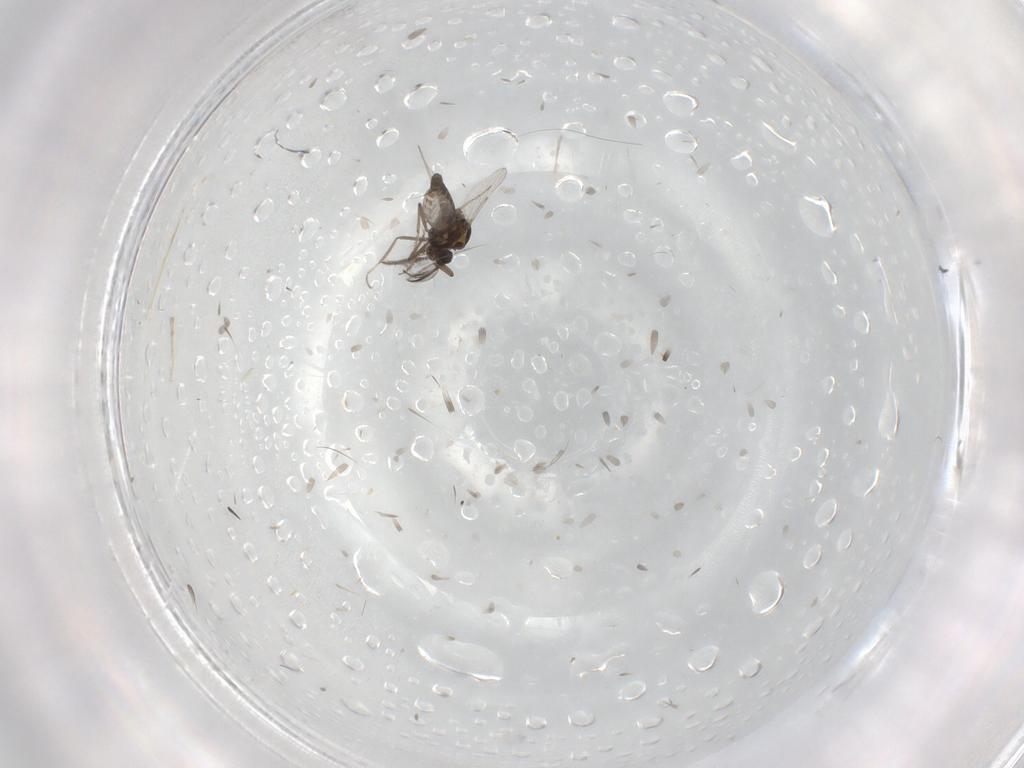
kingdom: Animalia
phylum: Arthropoda
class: Insecta
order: Diptera
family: Ceratopogonidae
